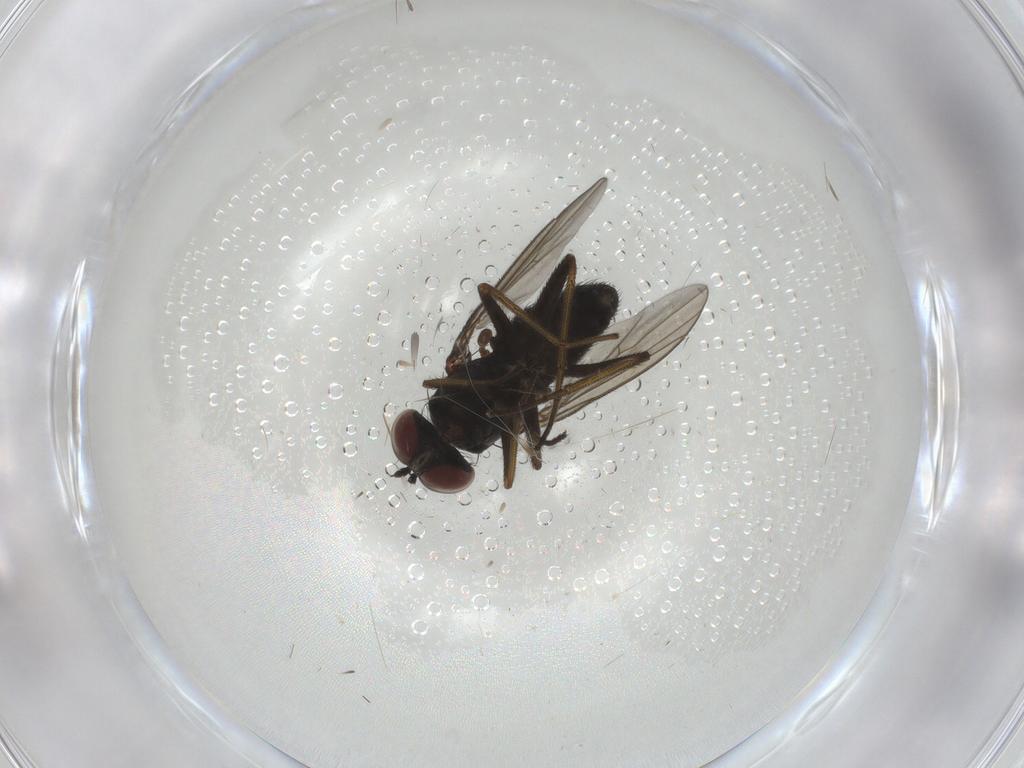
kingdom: Animalia
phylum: Arthropoda
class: Insecta
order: Diptera
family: Dolichopodidae
